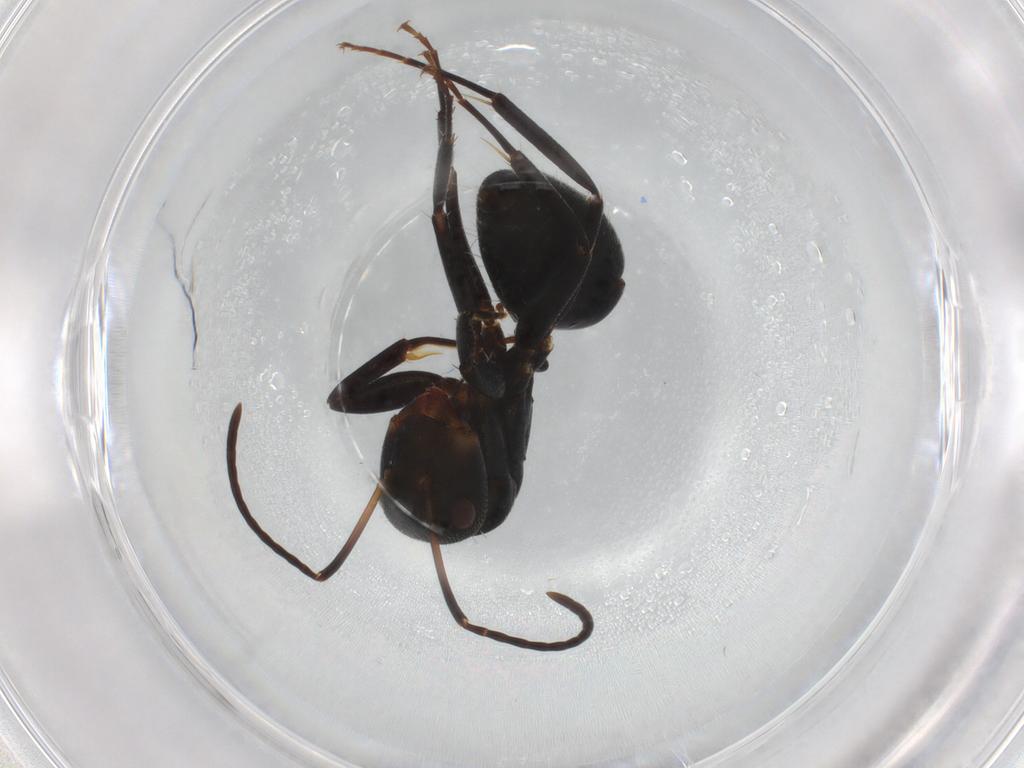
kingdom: Animalia
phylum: Arthropoda
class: Insecta
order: Hymenoptera
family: Formicidae
